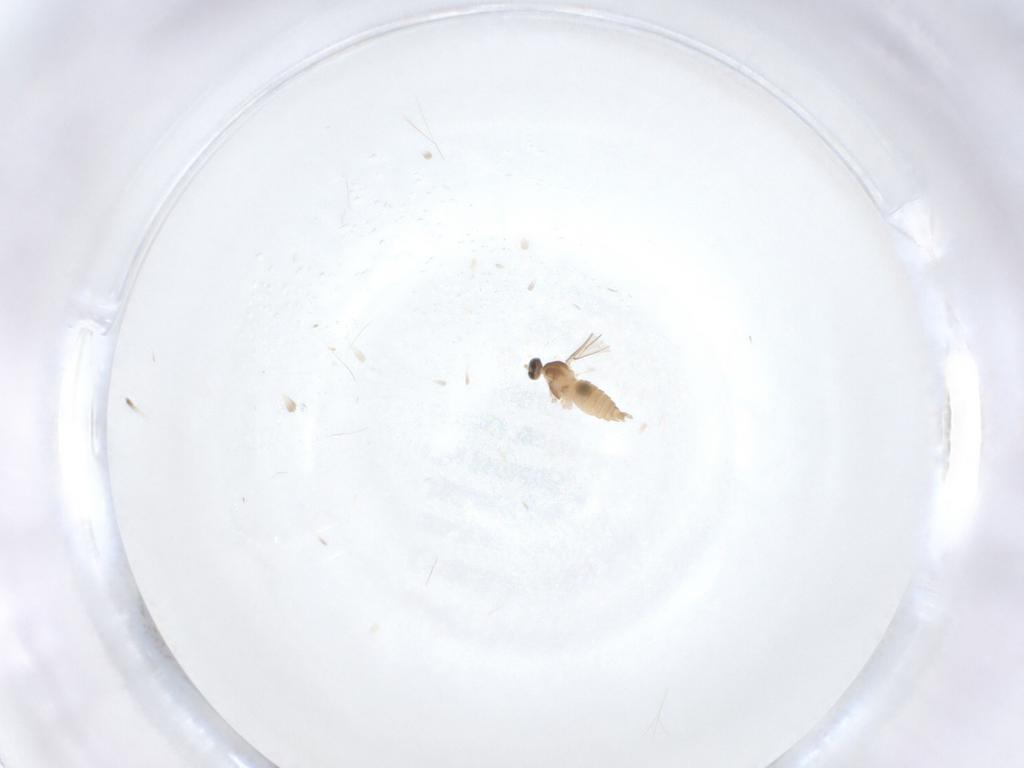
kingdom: Animalia
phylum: Arthropoda
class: Insecta
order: Diptera
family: Cecidomyiidae
